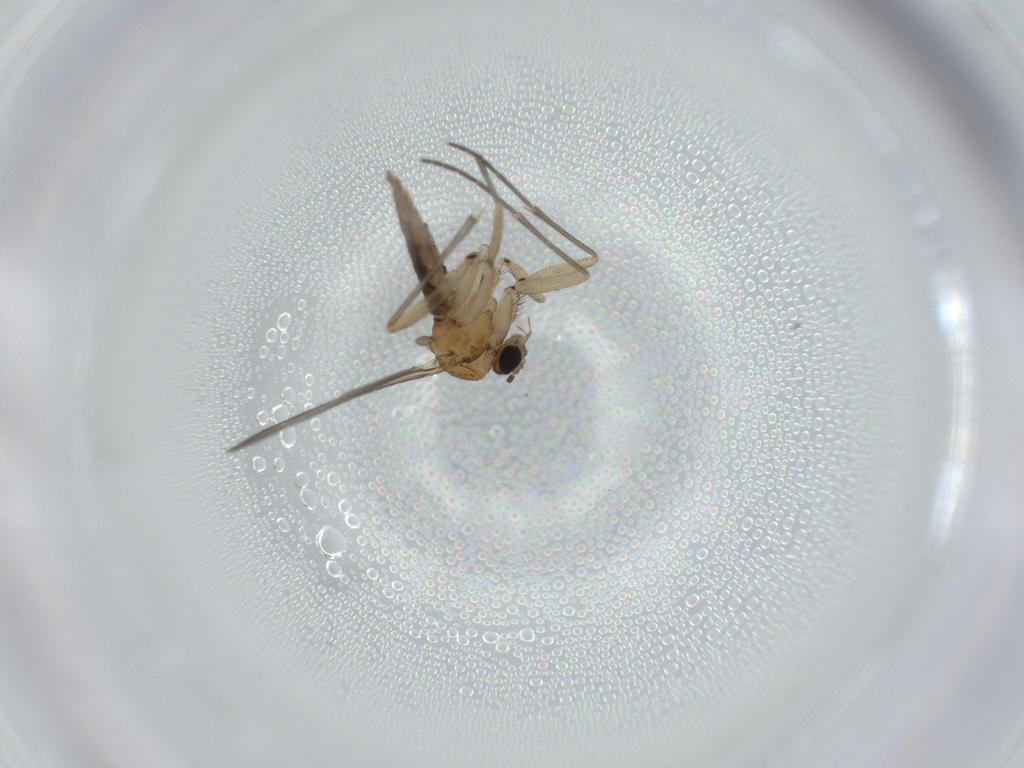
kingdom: Animalia
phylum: Arthropoda
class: Insecta
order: Diptera
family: Sciaridae
